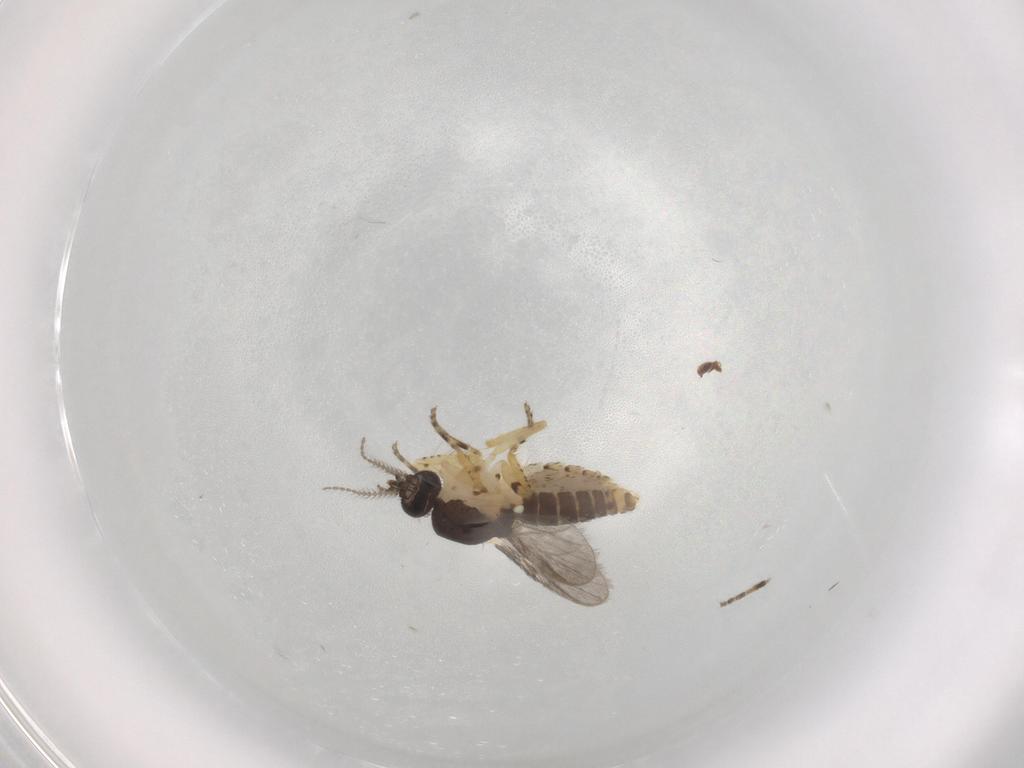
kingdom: Animalia
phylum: Arthropoda
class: Insecta
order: Diptera
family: Ceratopogonidae
